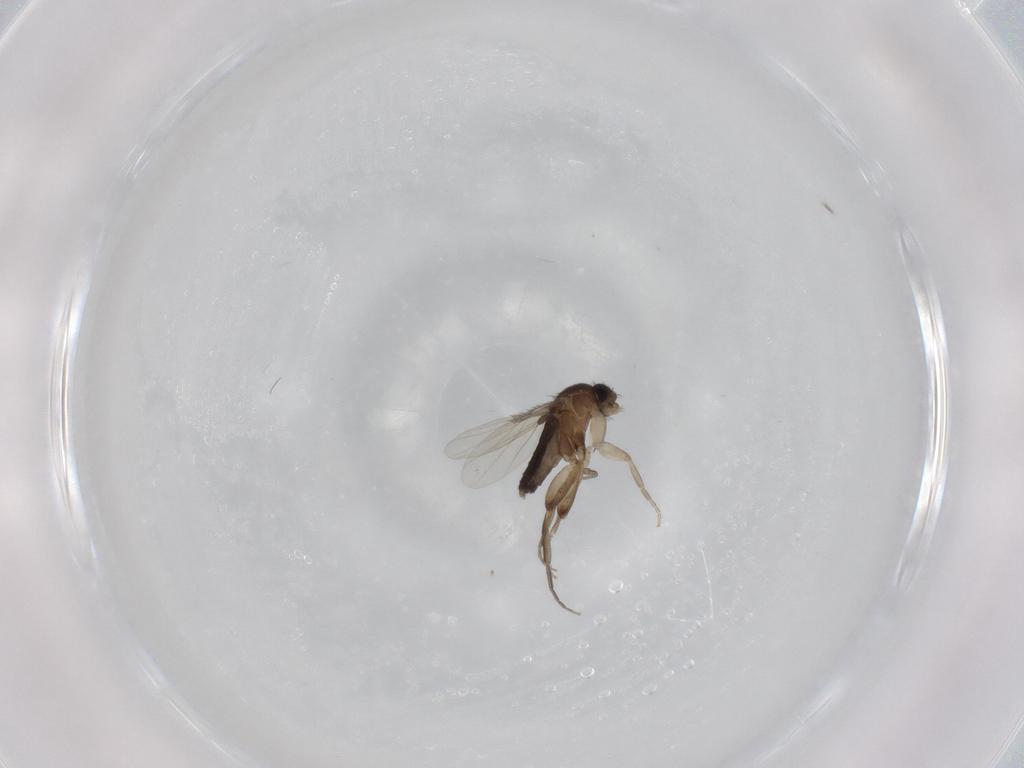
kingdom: Animalia
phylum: Arthropoda
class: Insecta
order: Diptera
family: Phoridae
